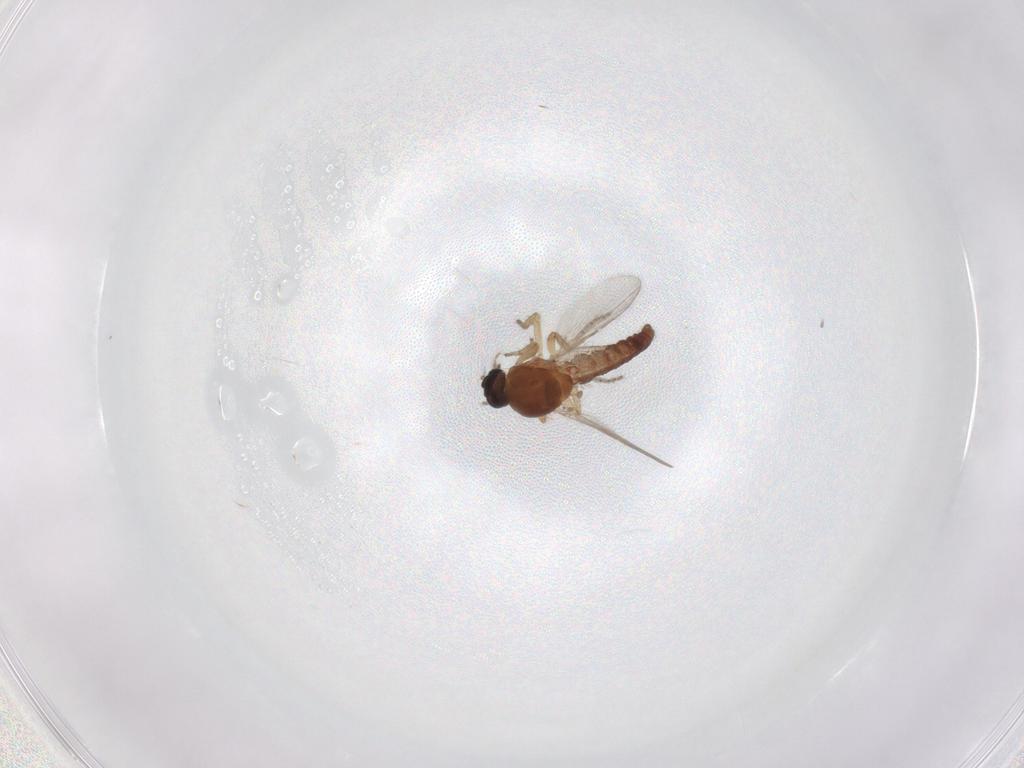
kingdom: Animalia
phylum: Arthropoda
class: Insecta
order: Diptera
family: Ceratopogonidae
